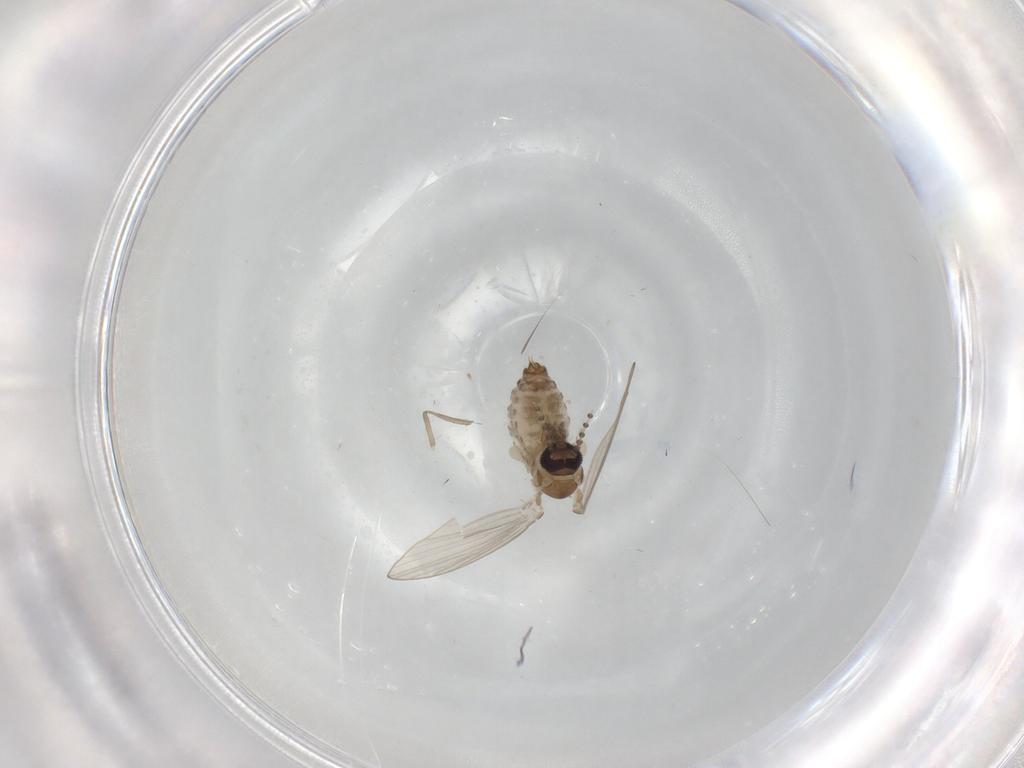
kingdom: Animalia
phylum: Arthropoda
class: Insecta
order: Diptera
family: Mycetophilidae
